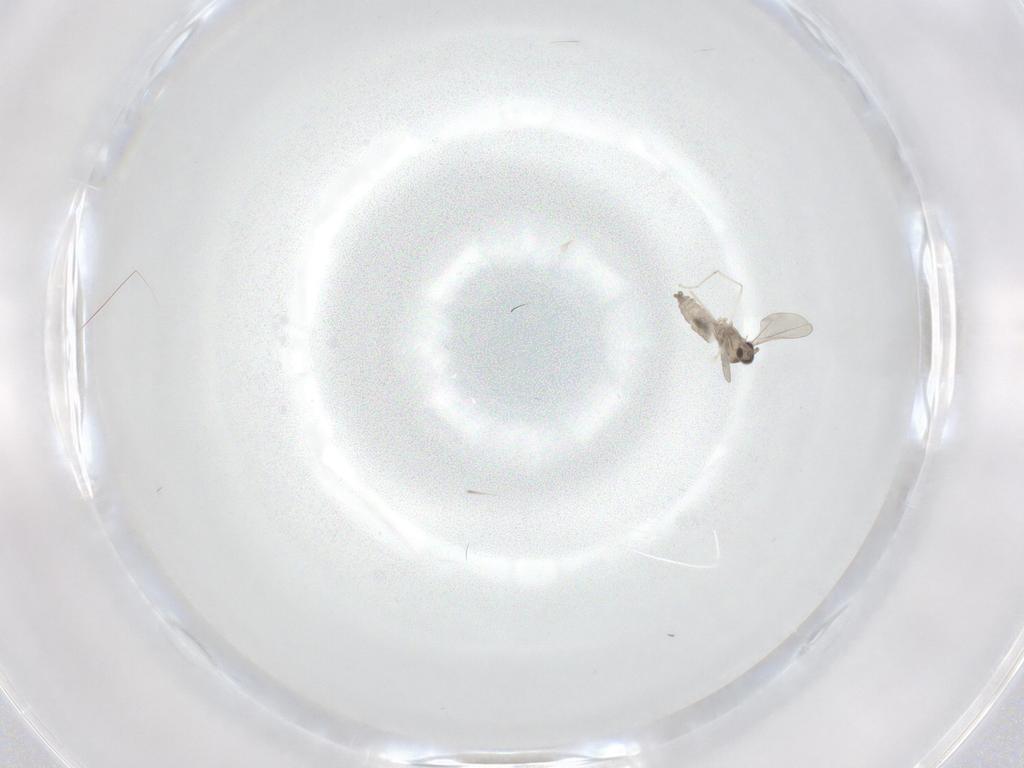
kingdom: Animalia
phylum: Arthropoda
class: Insecta
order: Diptera
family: Cecidomyiidae
